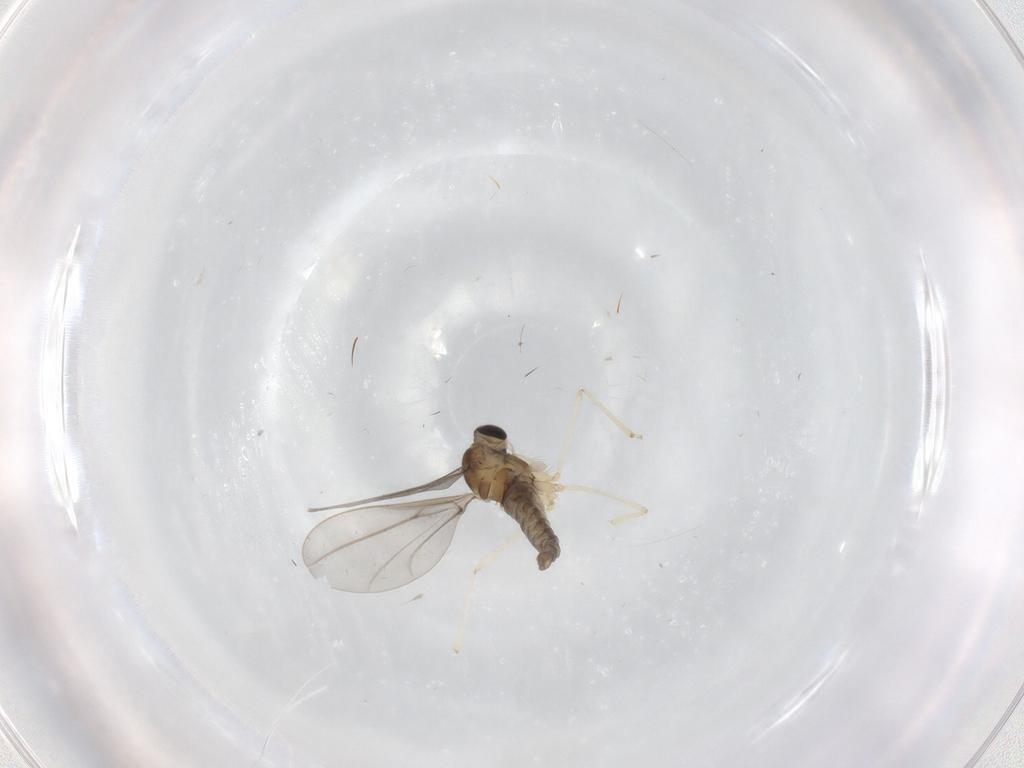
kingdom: Animalia
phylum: Arthropoda
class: Insecta
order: Diptera
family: Cecidomyiidae
